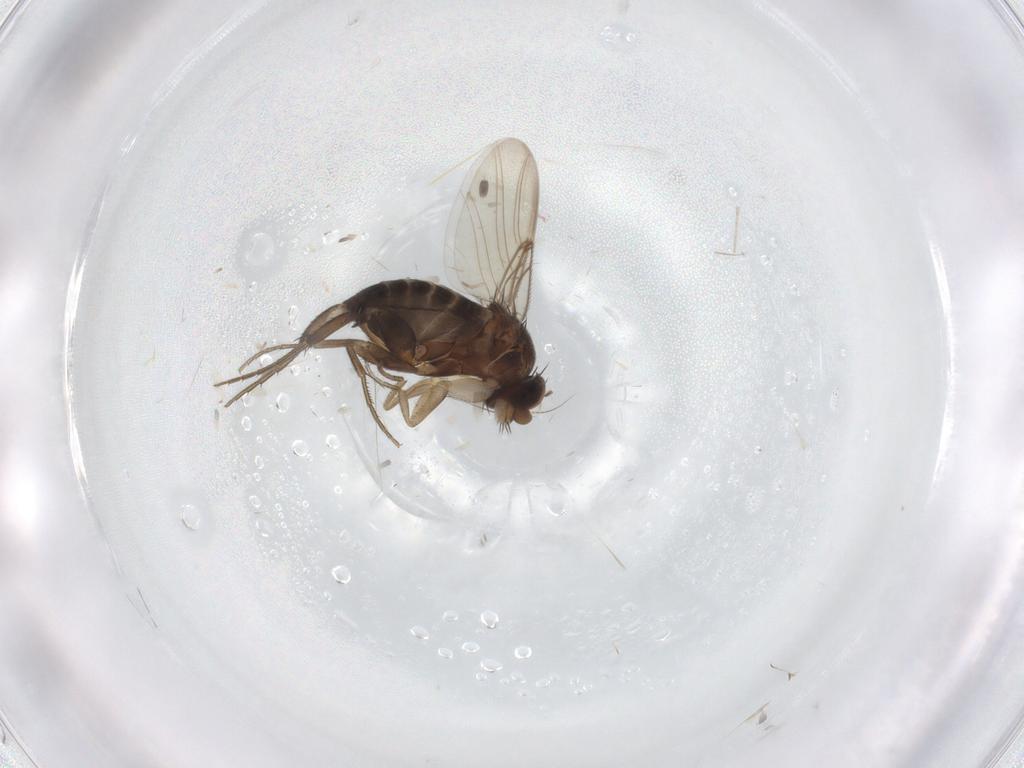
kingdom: Animalia
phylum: Arthropoda
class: Insecta
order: Diptera
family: Phoridae
